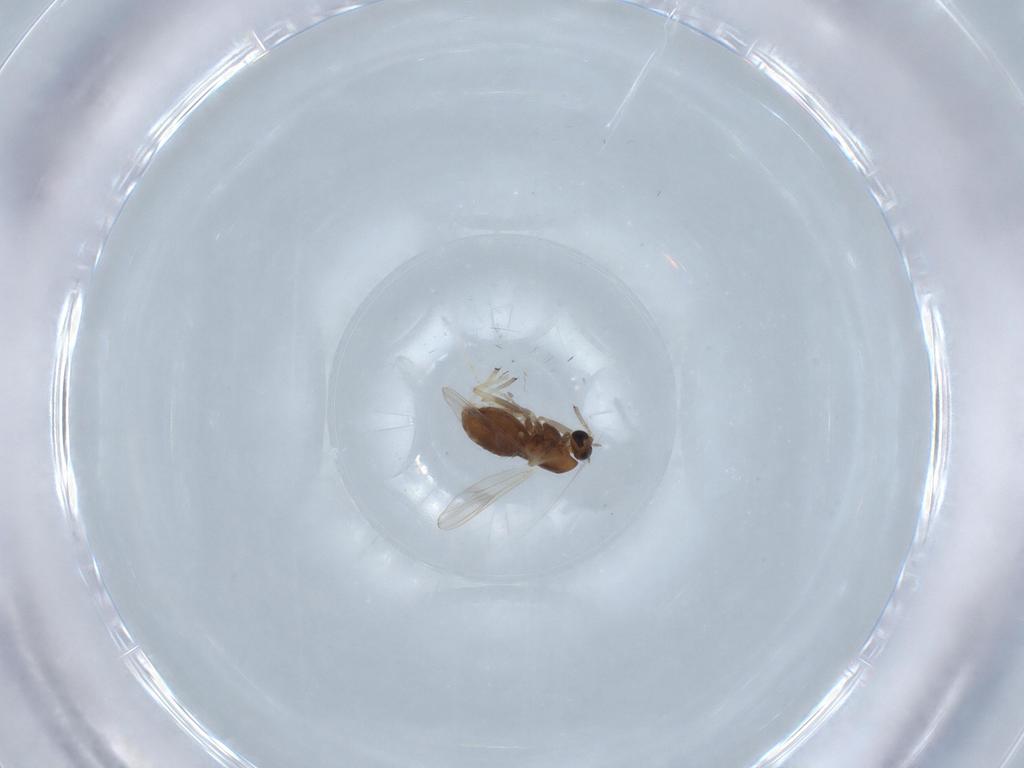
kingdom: Animalia
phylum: Arthropoda
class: Insecta
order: Diptera
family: Chironomidae
